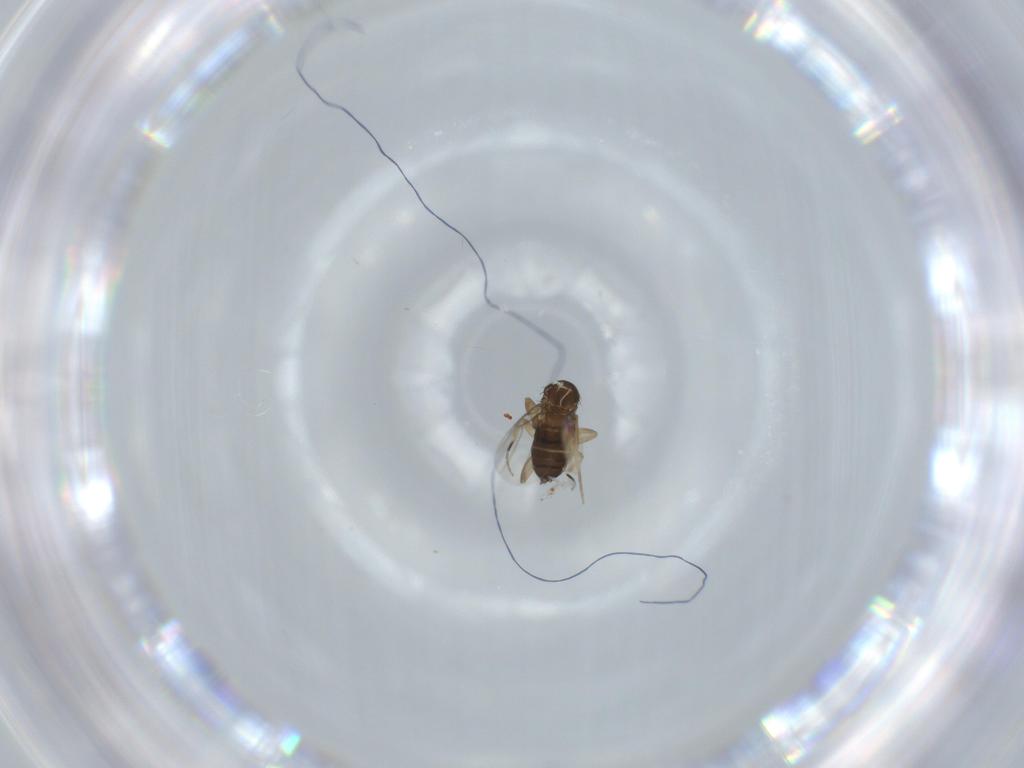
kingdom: Animalia
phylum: Arthropoda
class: Insecta
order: Diptera
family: Phoridae
